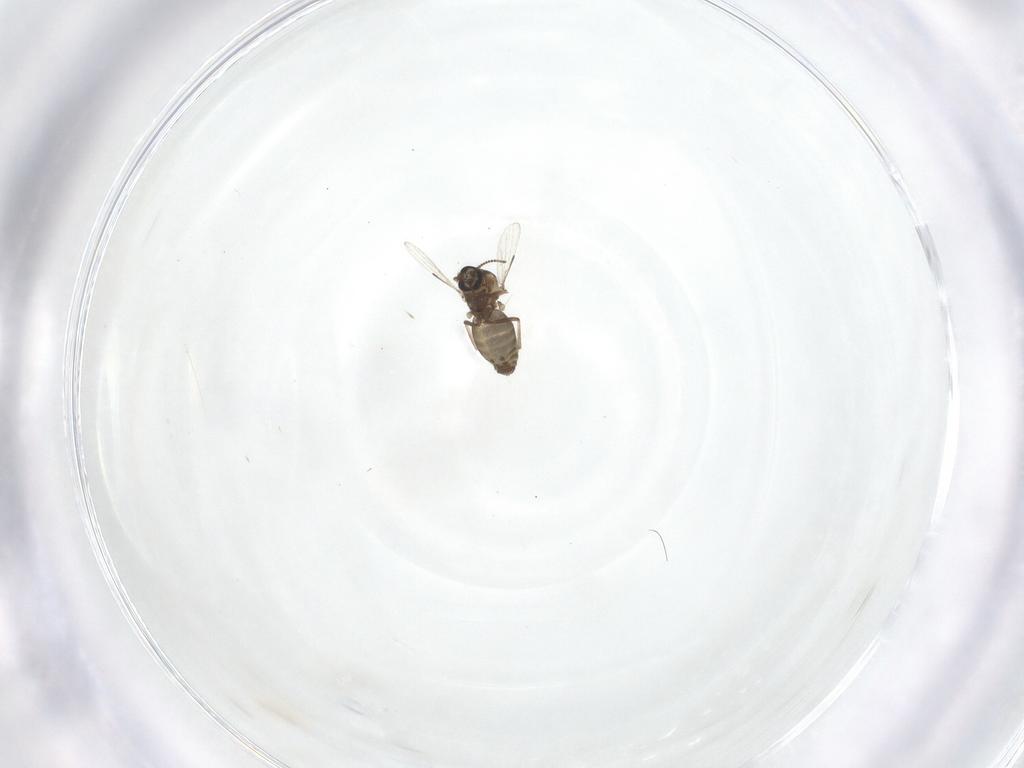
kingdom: Animalia
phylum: Arthropoda
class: Insecta
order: Diptera
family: Ceratopogonidae
